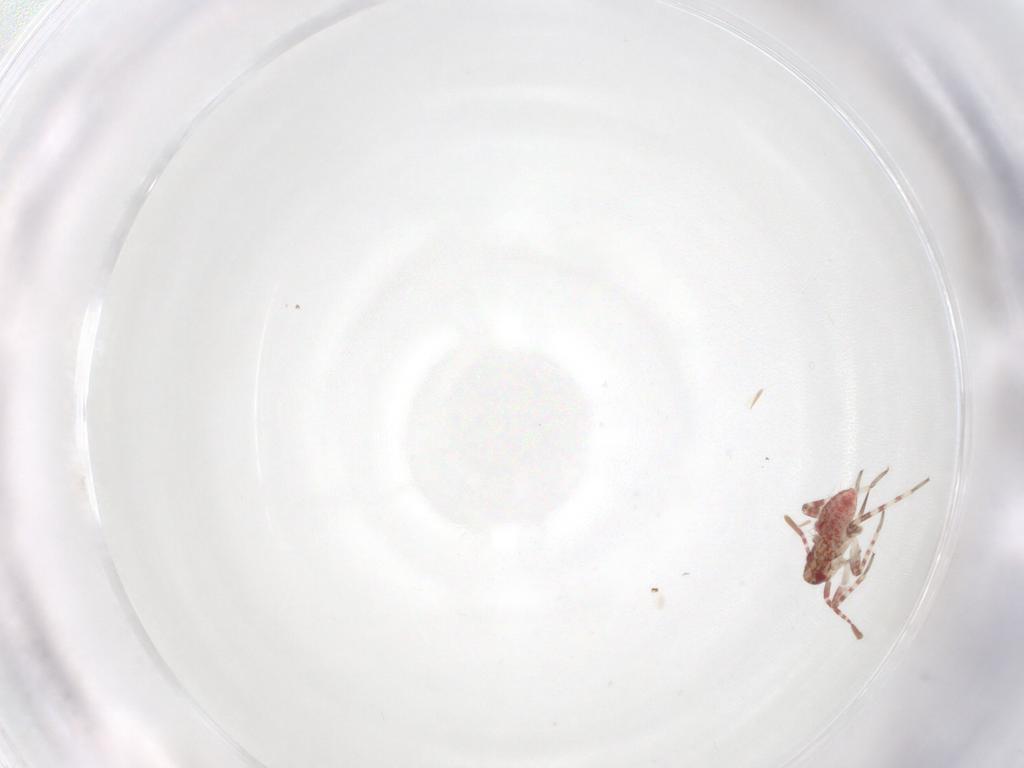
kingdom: Animalia
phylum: Arthropoda
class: Insecta
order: Hemiptera
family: Miridae
